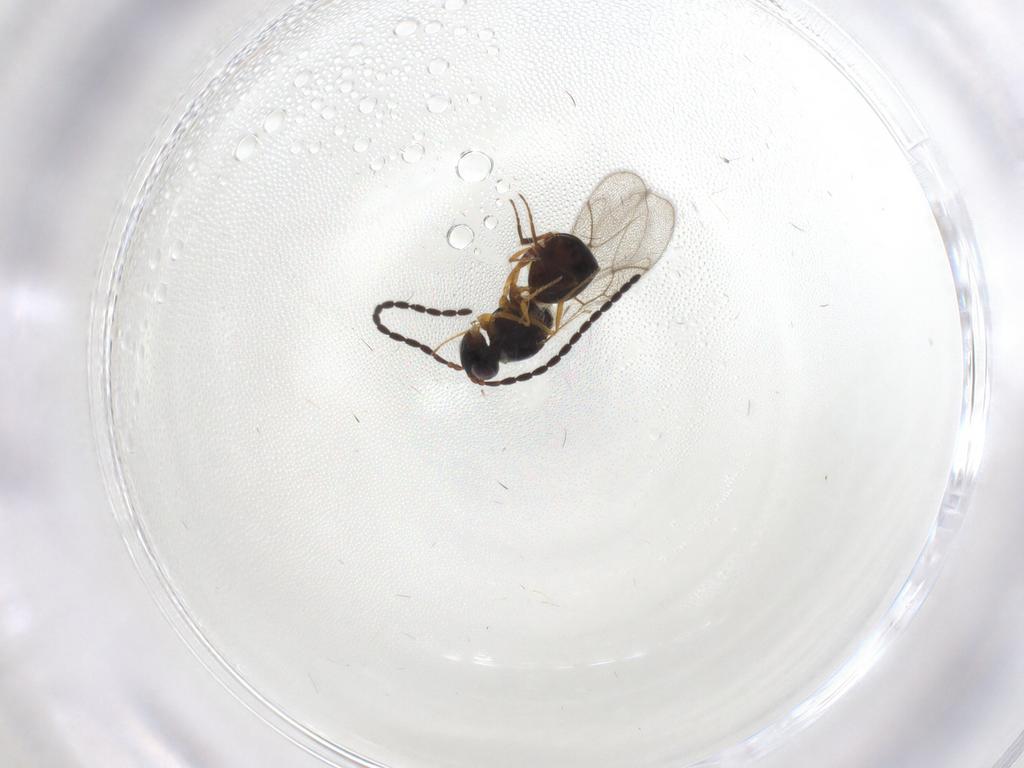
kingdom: Animalia
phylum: Arthropoda
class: Insecta
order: Hymenoptera
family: Figitidae
